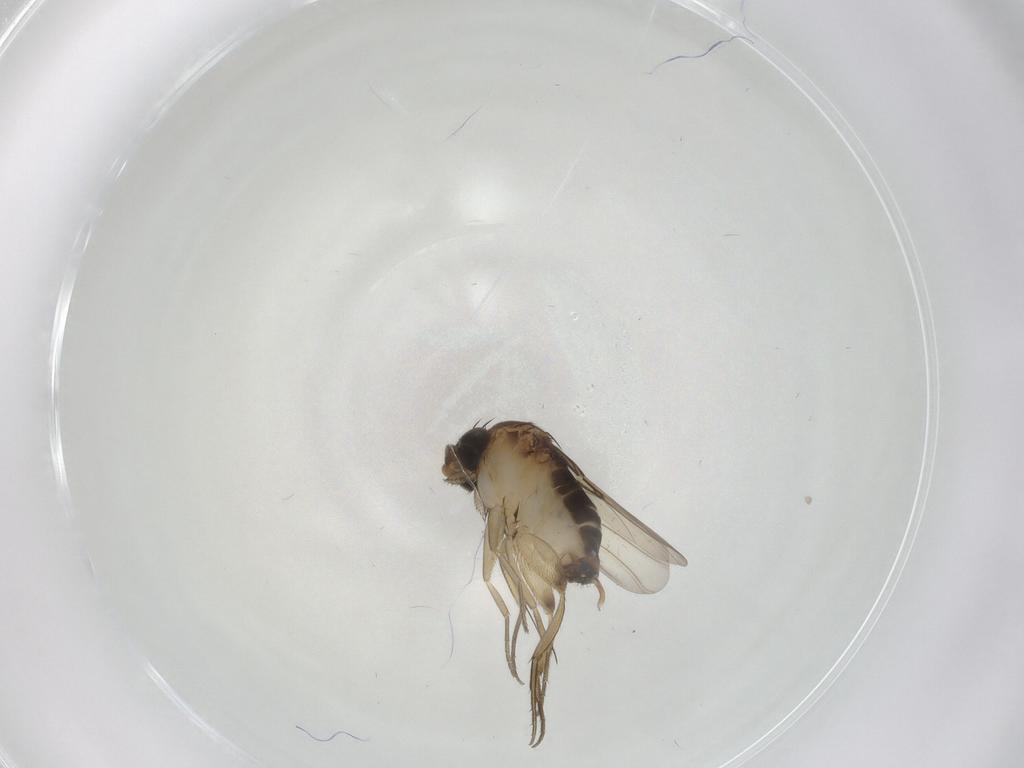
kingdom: Animalia
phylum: Arthropoda
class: Insecta
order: Diptera
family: Phoridae
